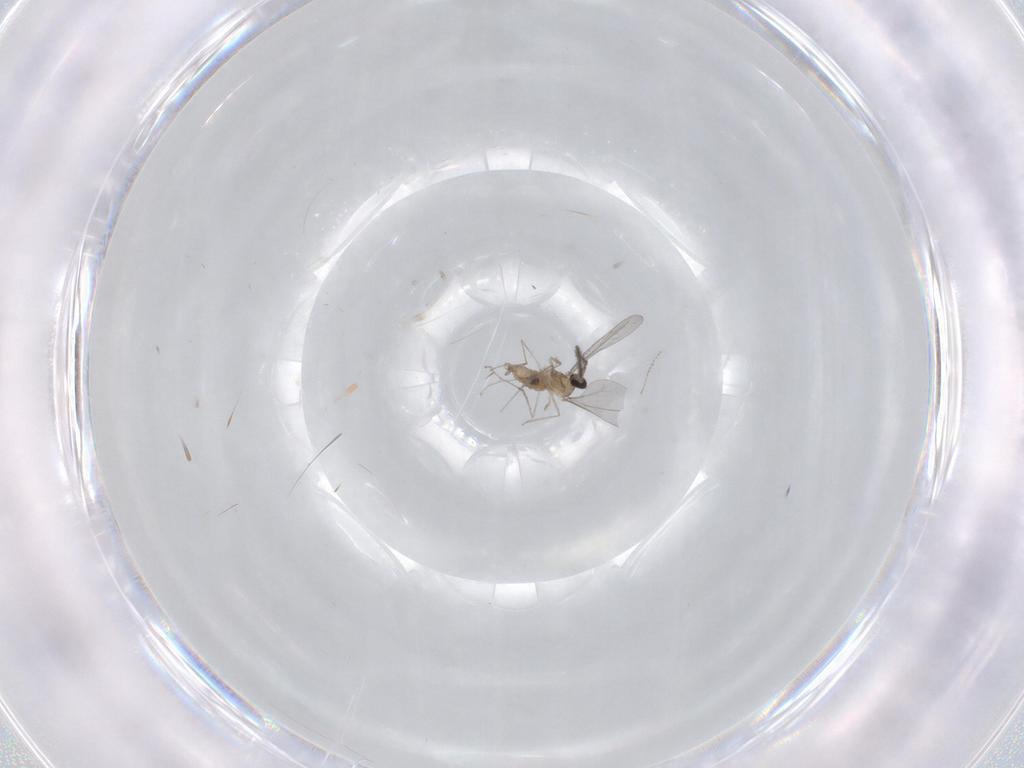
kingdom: Animalia
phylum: Arthropoda
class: Insecta
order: Diptera
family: Cecidomyiidae
